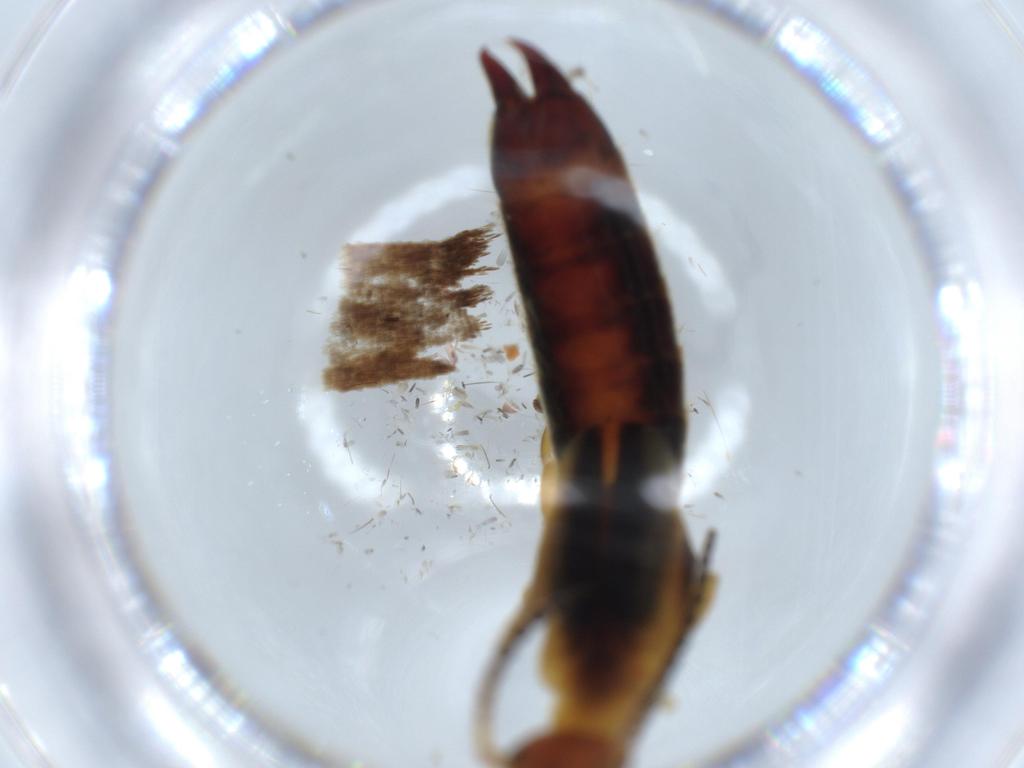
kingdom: Animalia
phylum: Arthropoda
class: Insecta
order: Dermaptera
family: Forficulidae
